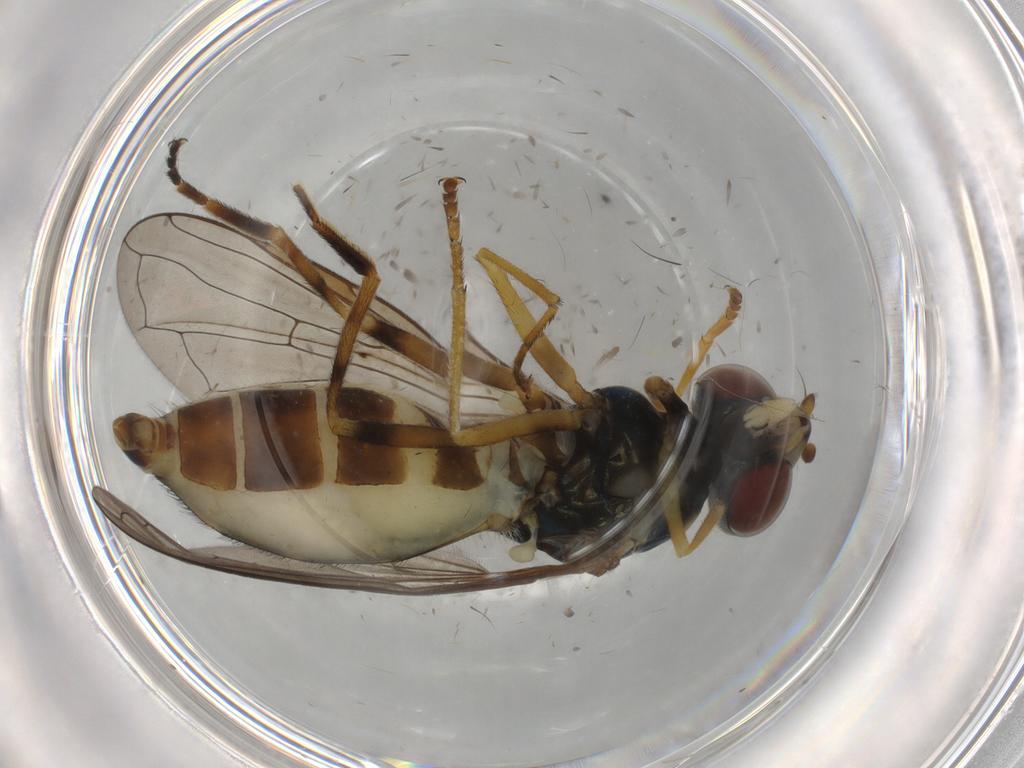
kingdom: Animalia
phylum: Arthropoda
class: Insecta
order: Diptera
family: Syrphidae
